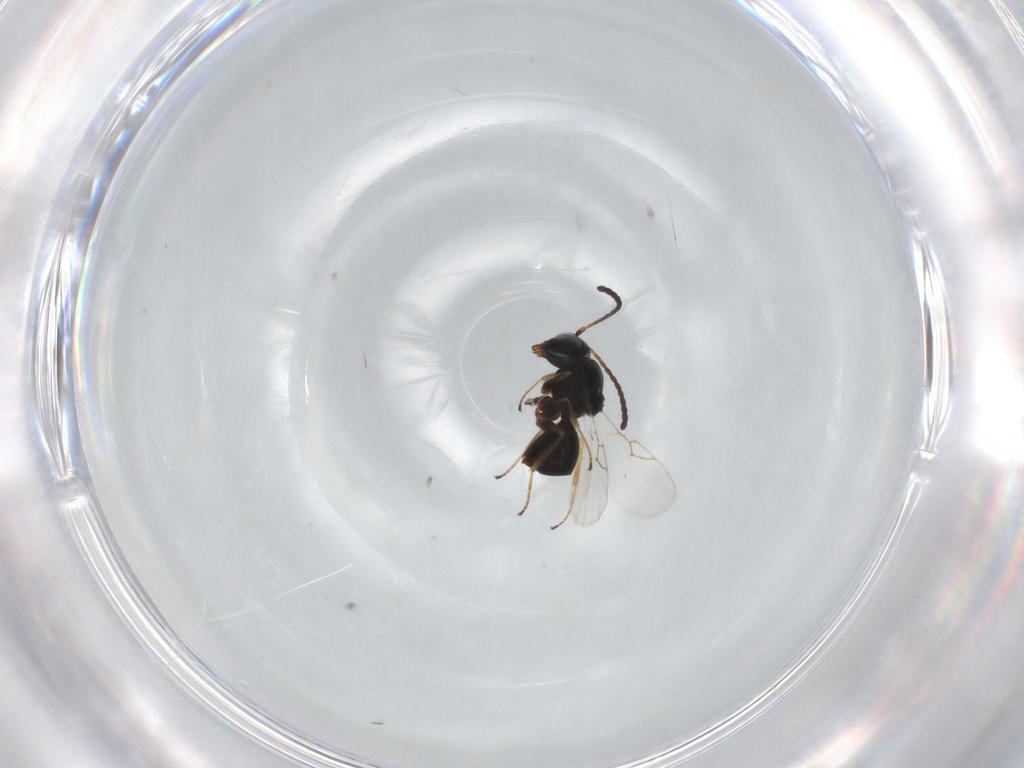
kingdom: Animalia
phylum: Arthropoda
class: Insecta
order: Hymenoptera
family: Figitidae
